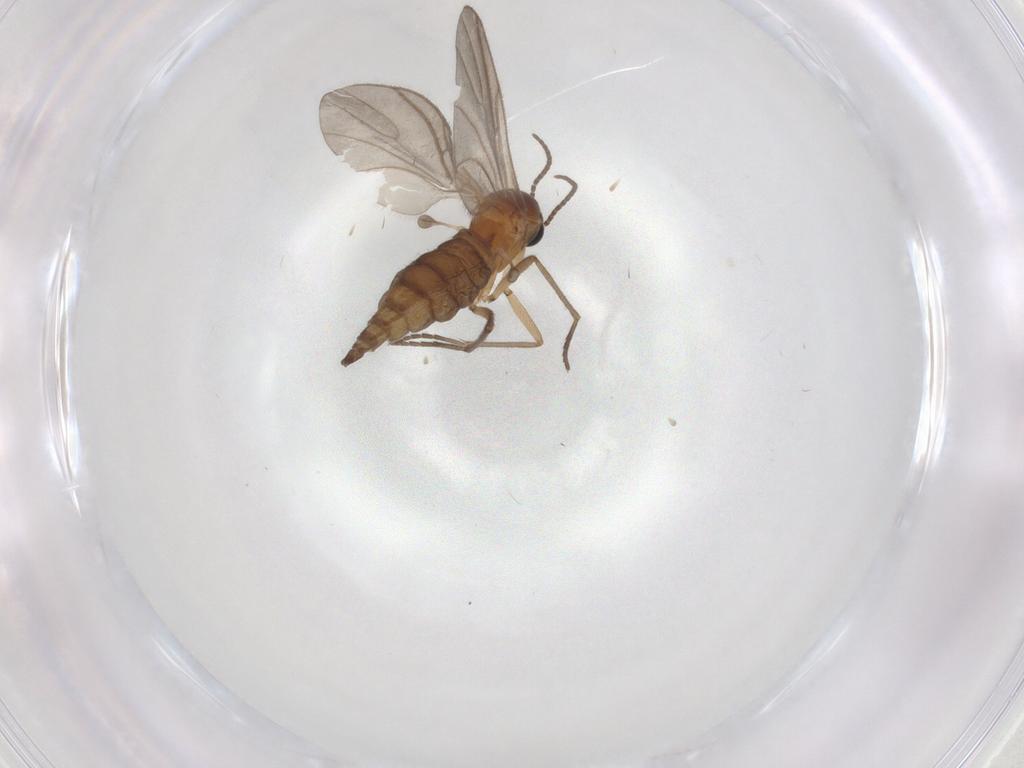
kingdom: Animalia
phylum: Arthropoda
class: Insecta
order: Diptera
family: Sciaridae
